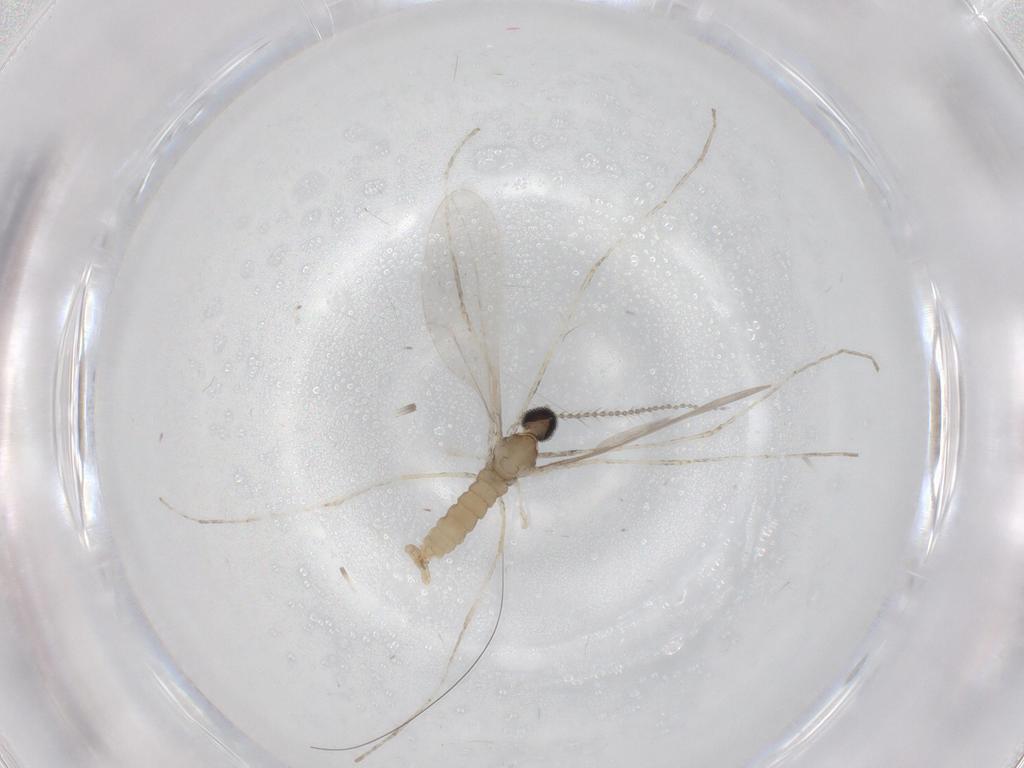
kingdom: Animalia
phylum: Arthropoda
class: Insecta
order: Diptera
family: Cecidomyiidae
